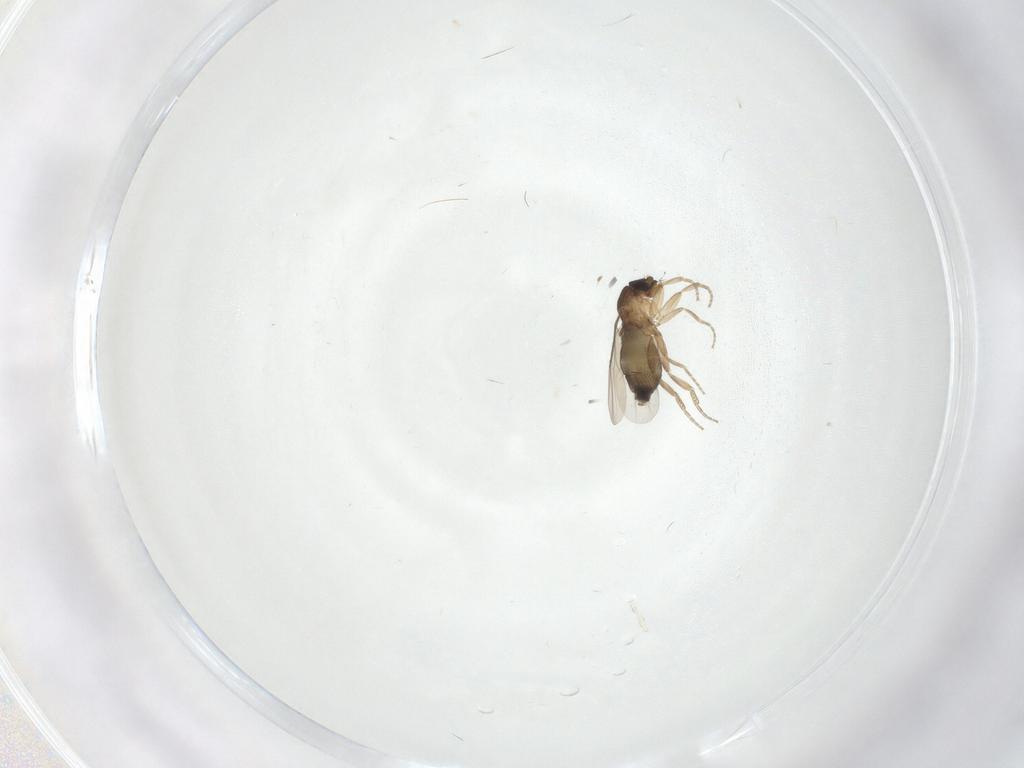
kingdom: Animalia
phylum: Arthropoda
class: Insecta
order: Diptera
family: Phoridae
